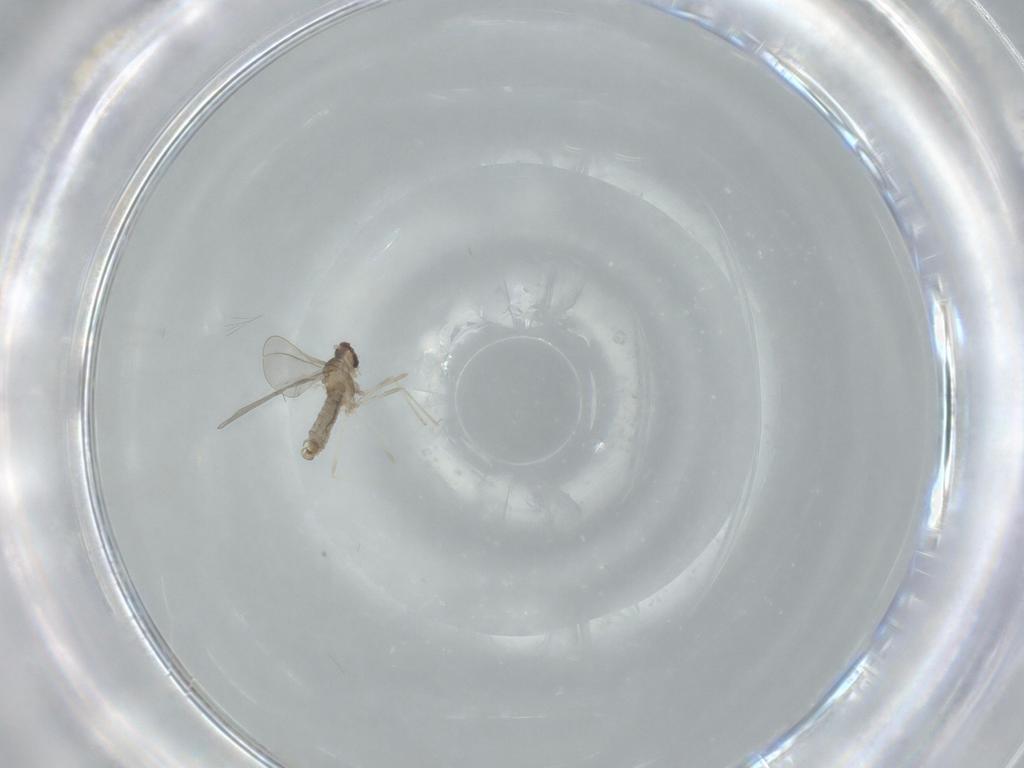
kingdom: Animalia
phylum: Arthropoda
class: Insecta
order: Diptera
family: Cecidomyiidae
